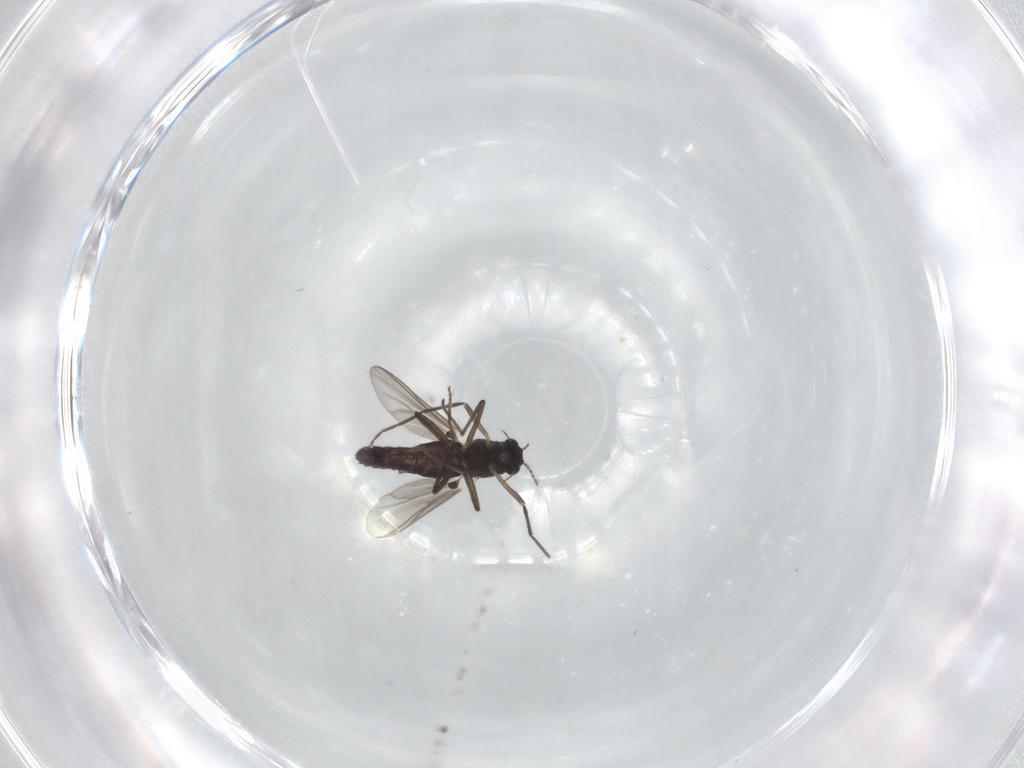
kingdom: Animalia
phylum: Arthropoda
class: Insecta
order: Diptera
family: Chironomidae
